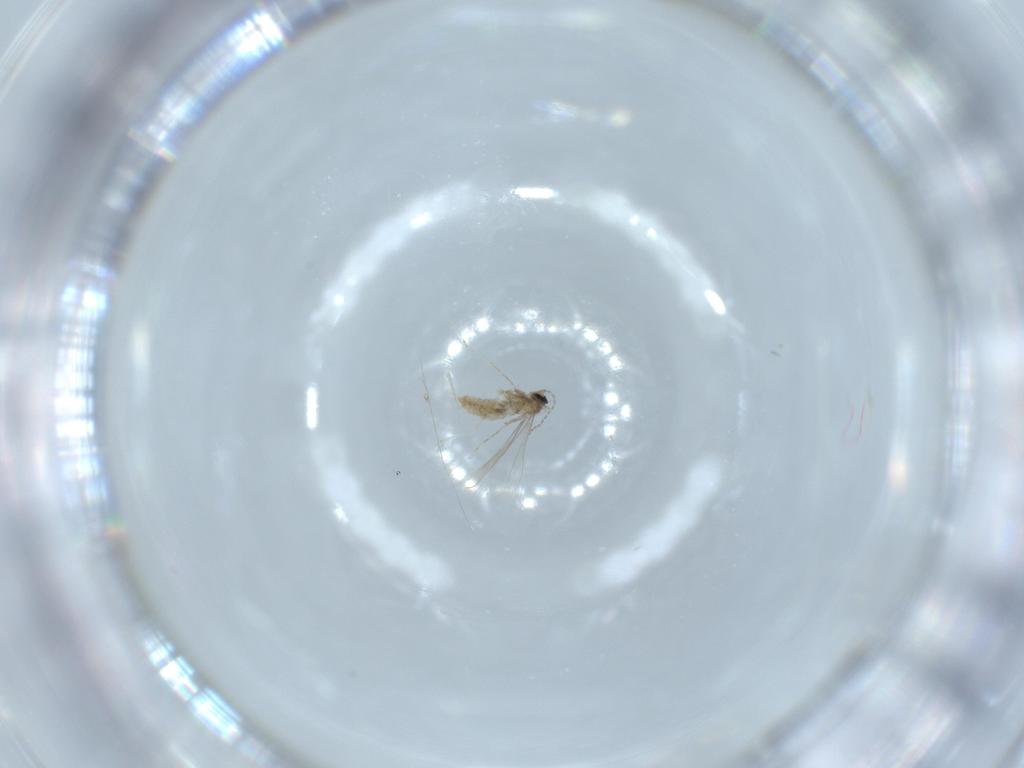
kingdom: Animalia
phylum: Arthropoda
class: Insecta
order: Diptera
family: Cecidomyiidae
